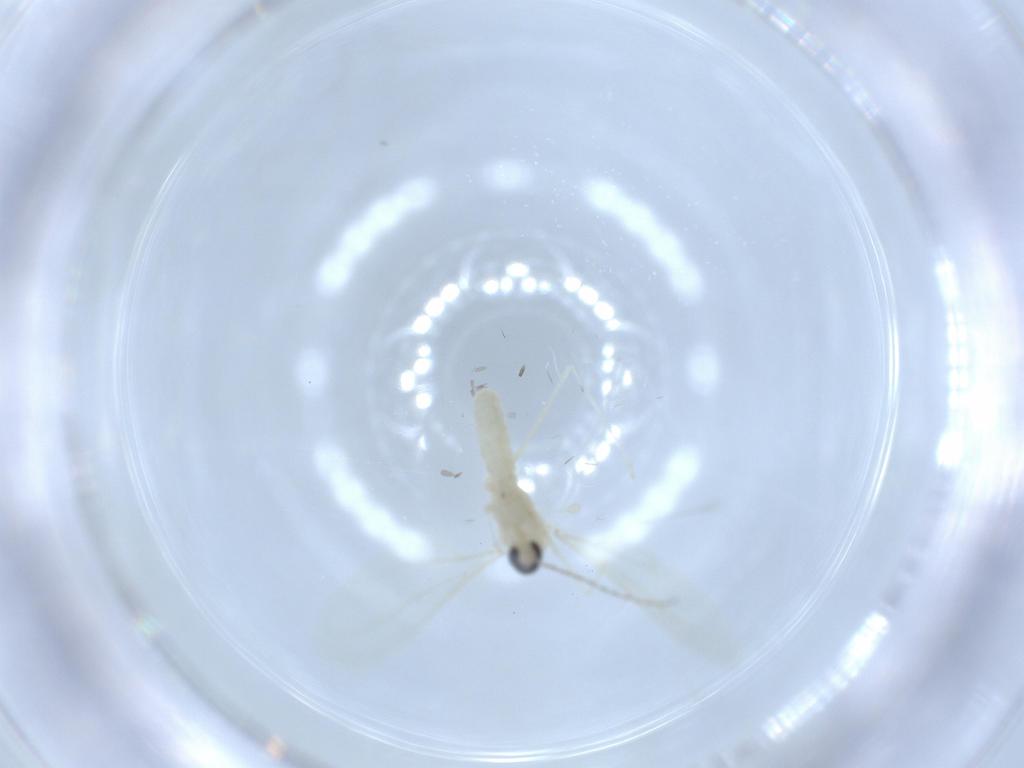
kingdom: Animalia
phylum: Arthropoda
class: Insecta
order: Diptera
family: Cecidomyiidae
